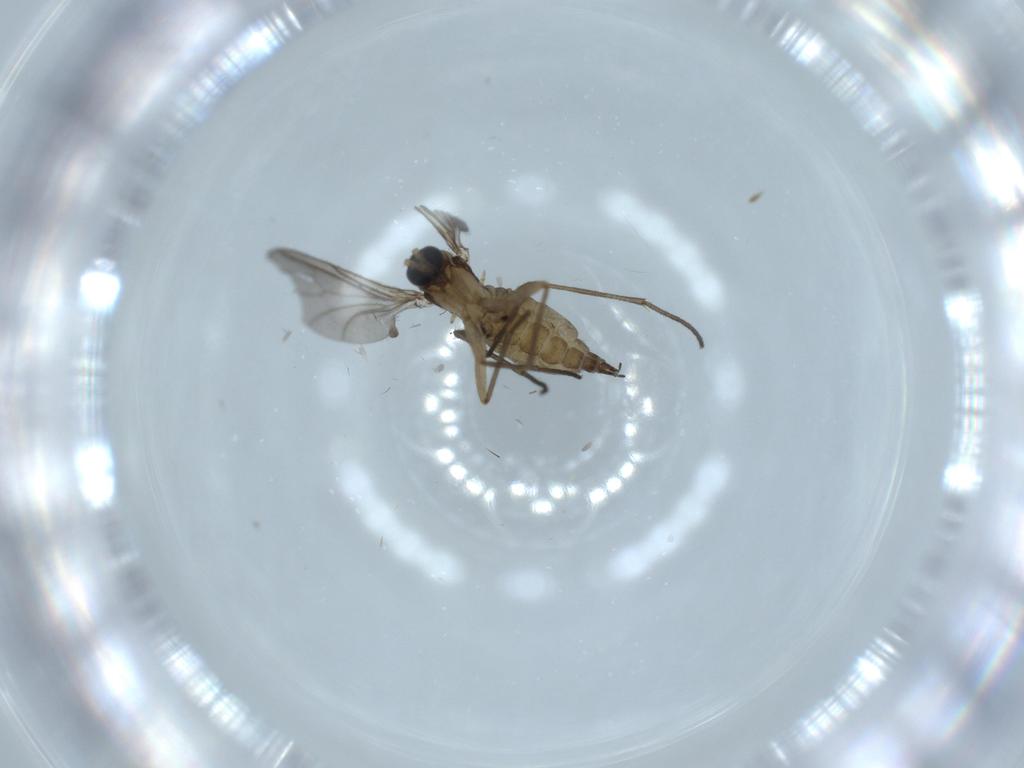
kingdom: Animalia
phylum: Arthropoda
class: Insecta
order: Diptera
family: Sciaridae
